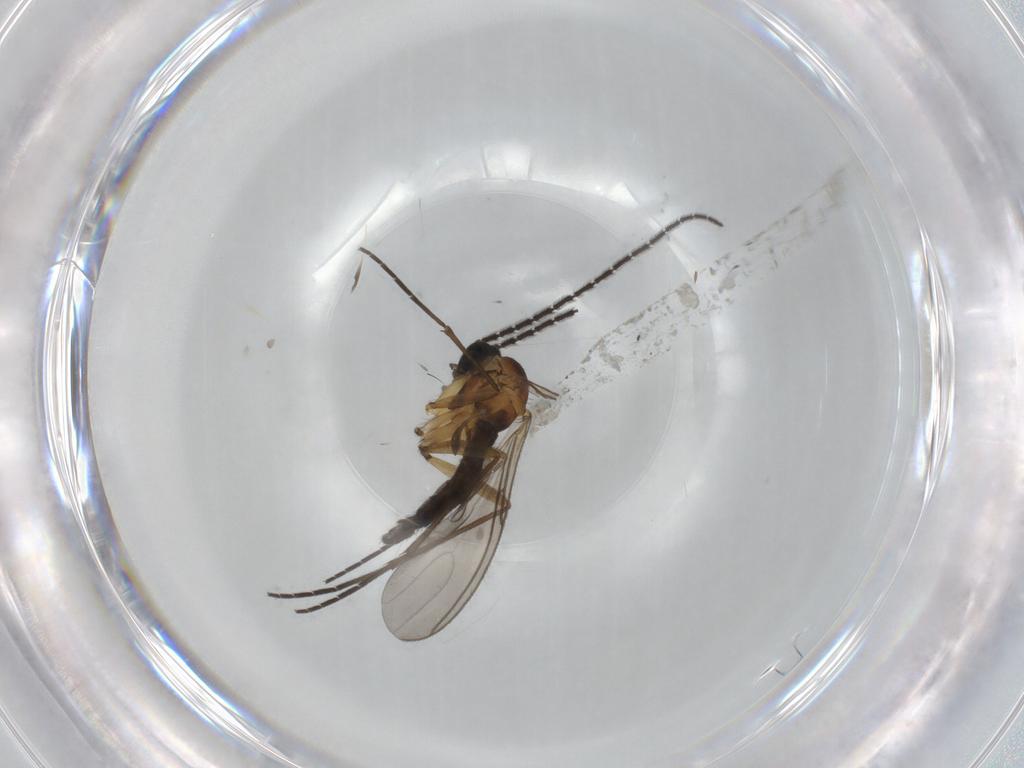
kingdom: Animalia
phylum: Arthropoda
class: Insecta
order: Diptera
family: Sciaridae
